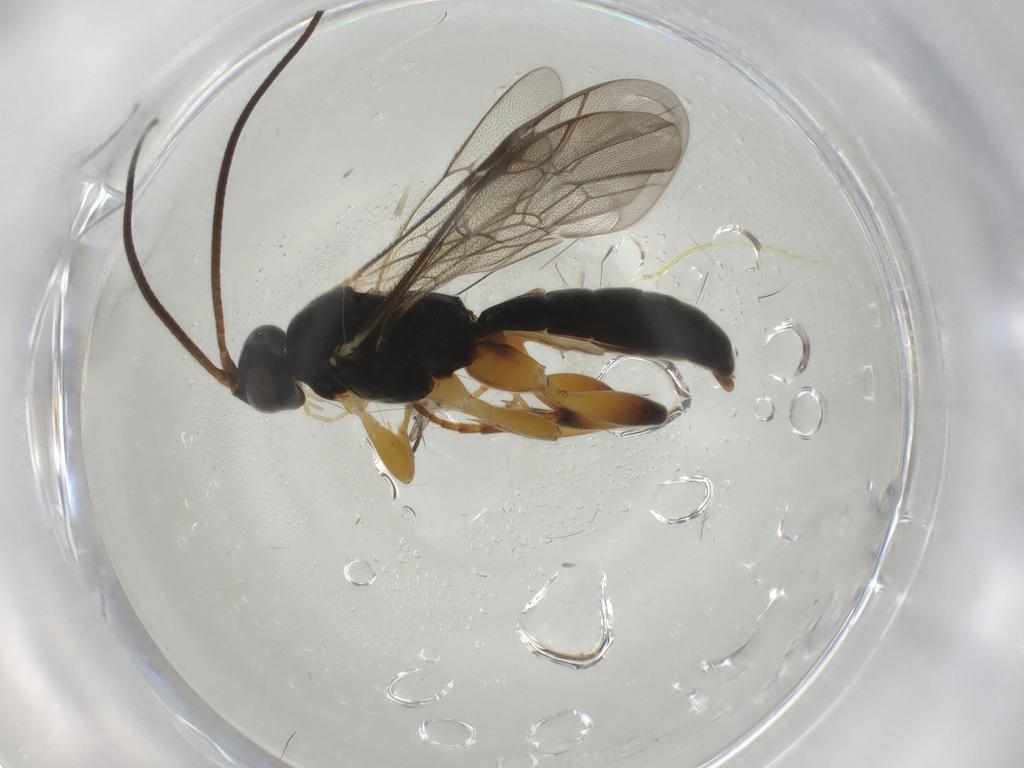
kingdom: Animalia
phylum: Arthropoda
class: Insecta
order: Hymenoptera
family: Ichneumonidae
